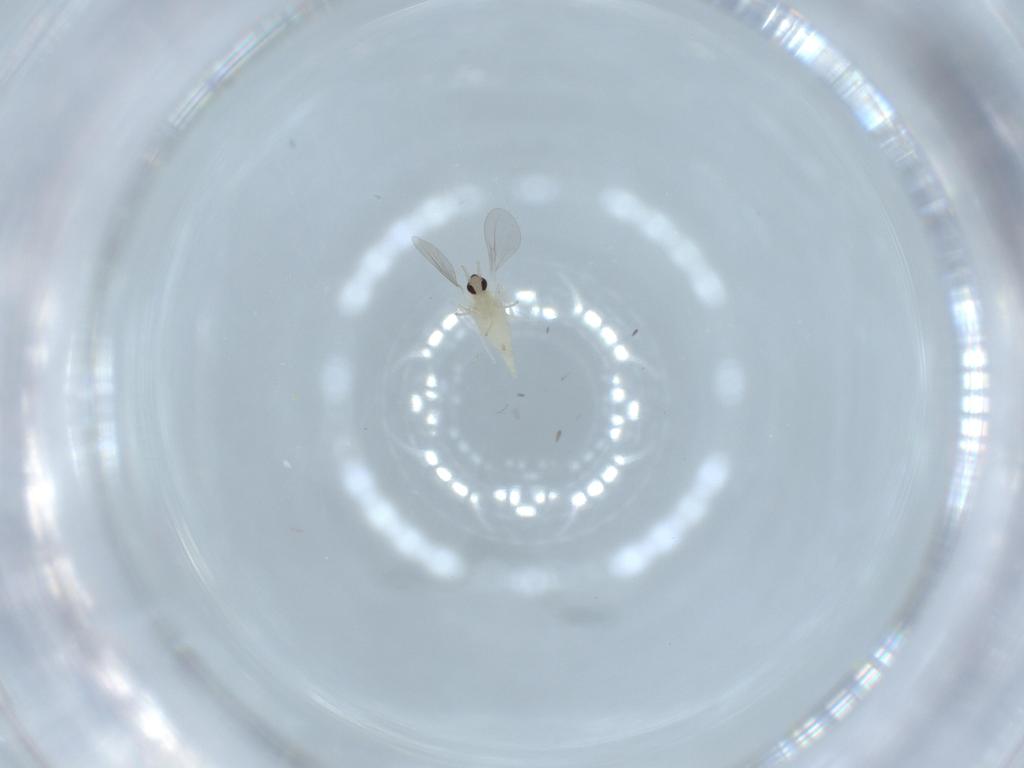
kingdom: Animalia
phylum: Arthropoda
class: Insecta
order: Diptera
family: Cecidomyiidae
